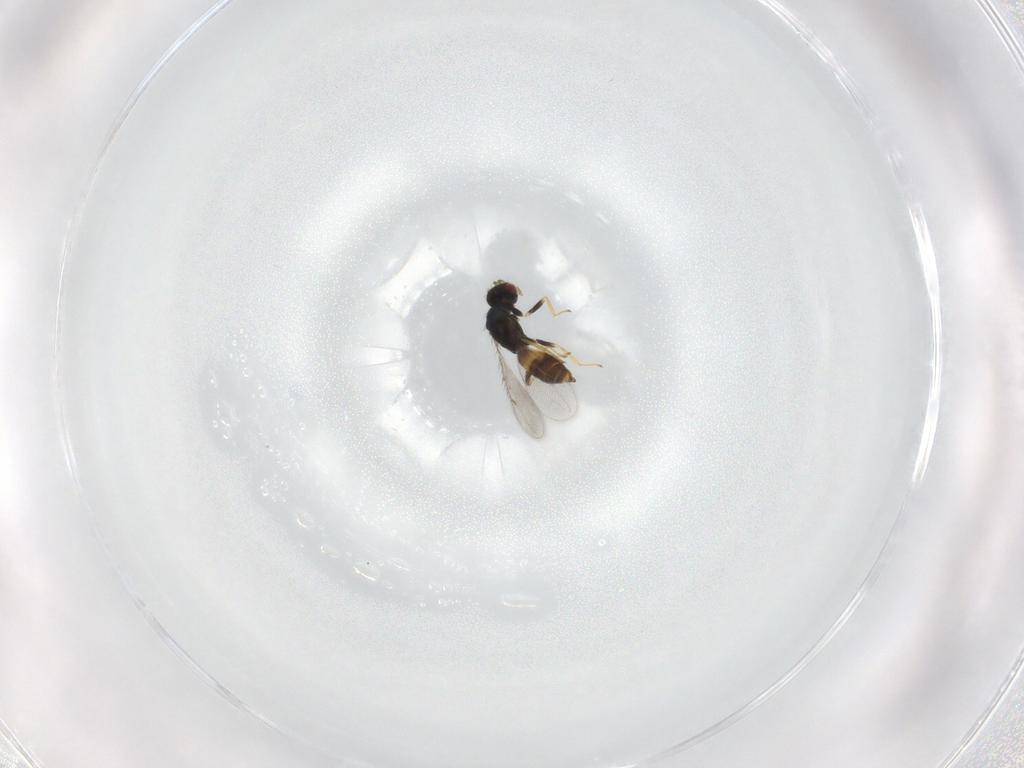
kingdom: Animalia
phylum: Arthropoda
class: Insecta
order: Hymenoptera
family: Eulophidae
